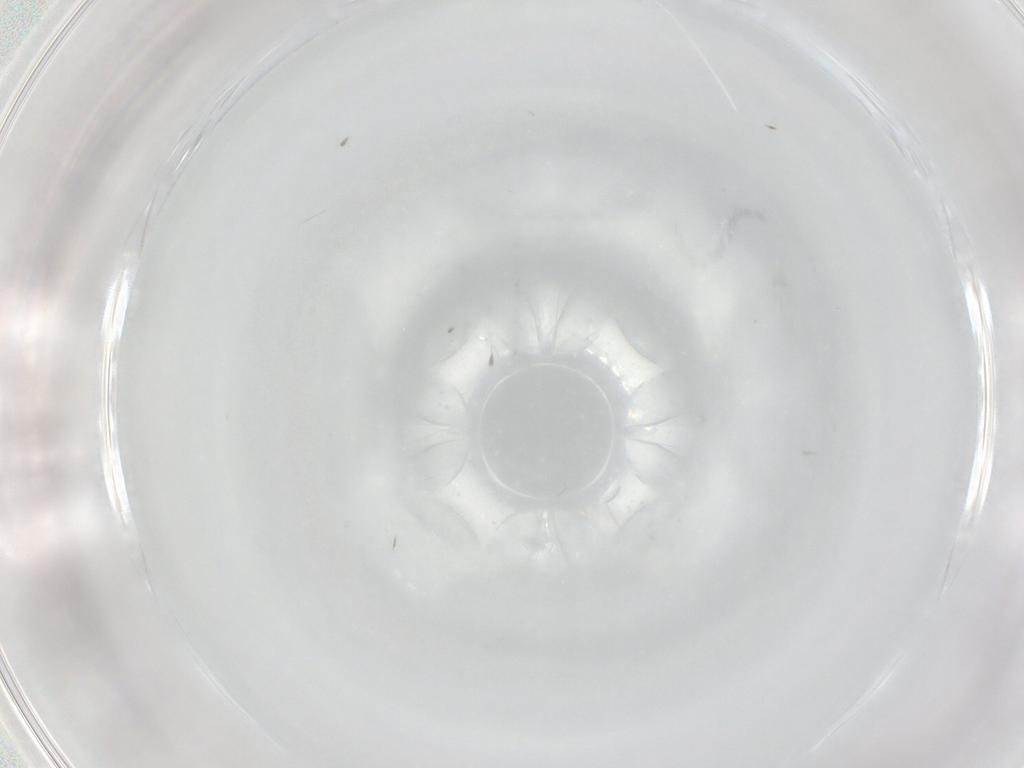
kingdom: Animalia
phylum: Arthropoda
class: Insecta
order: Diptera
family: Cecidomyiidae
